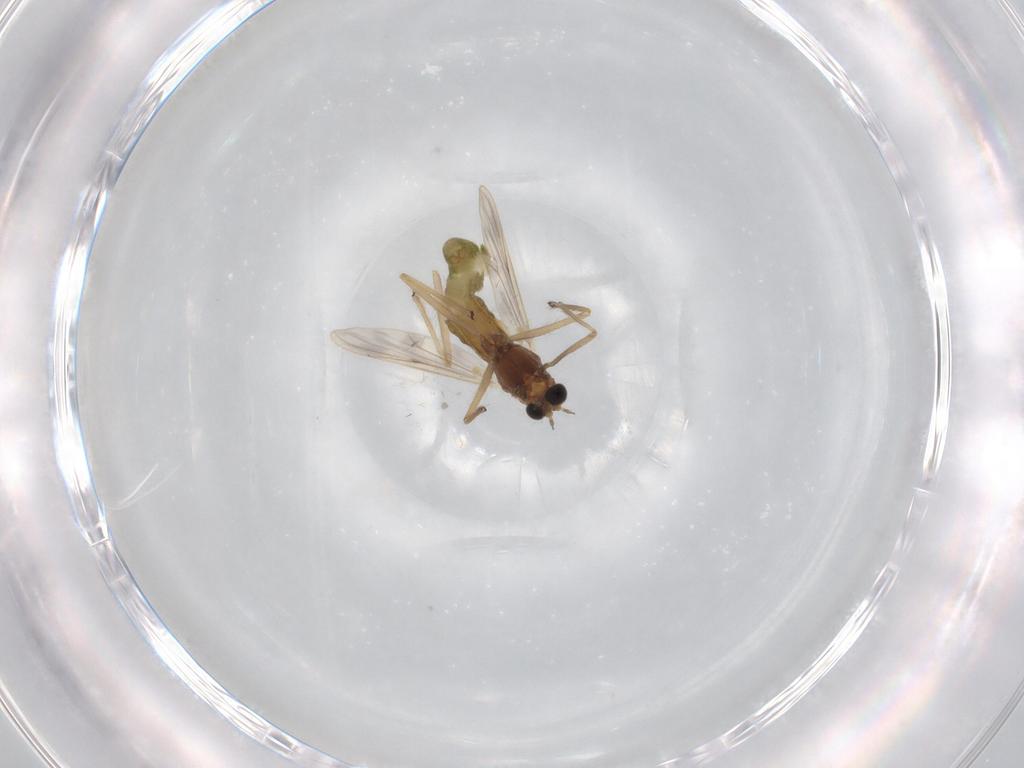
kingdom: Animalia
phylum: Arthropoda
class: Insecta
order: Diptera
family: Chironomidae
